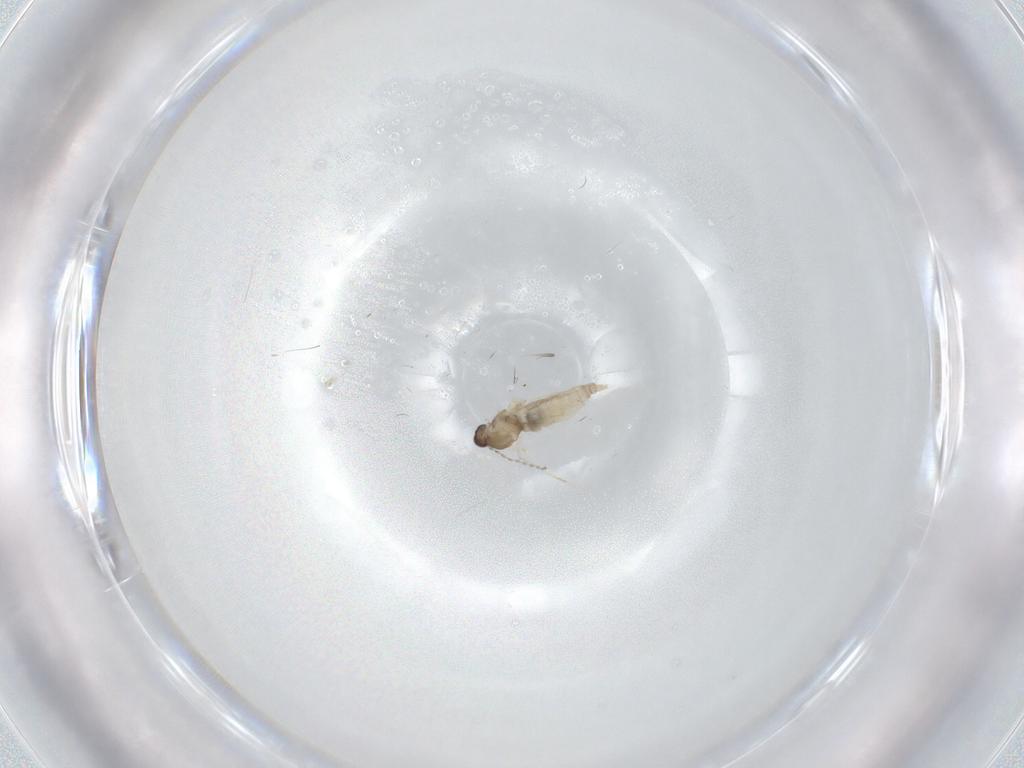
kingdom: Animalia
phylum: Arthropoda
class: Insecta
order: Diptera
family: Cecidomyiidae
